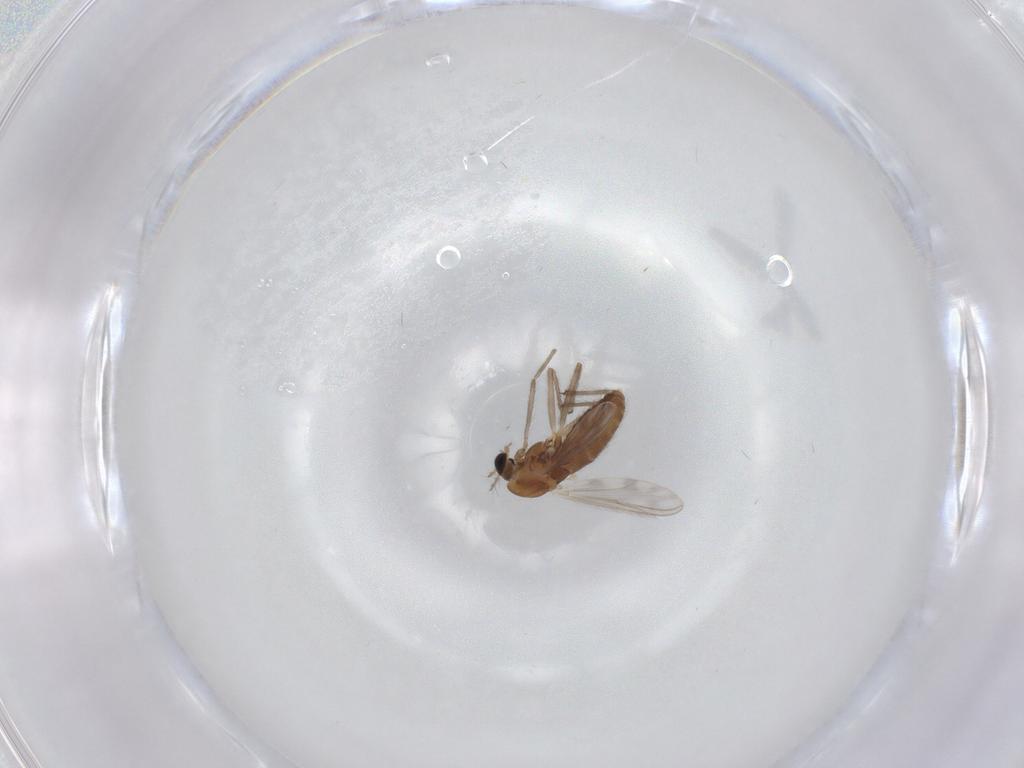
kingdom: Animalia
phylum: Arthropoda
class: Insecta
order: Diptera
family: Chironomidae
